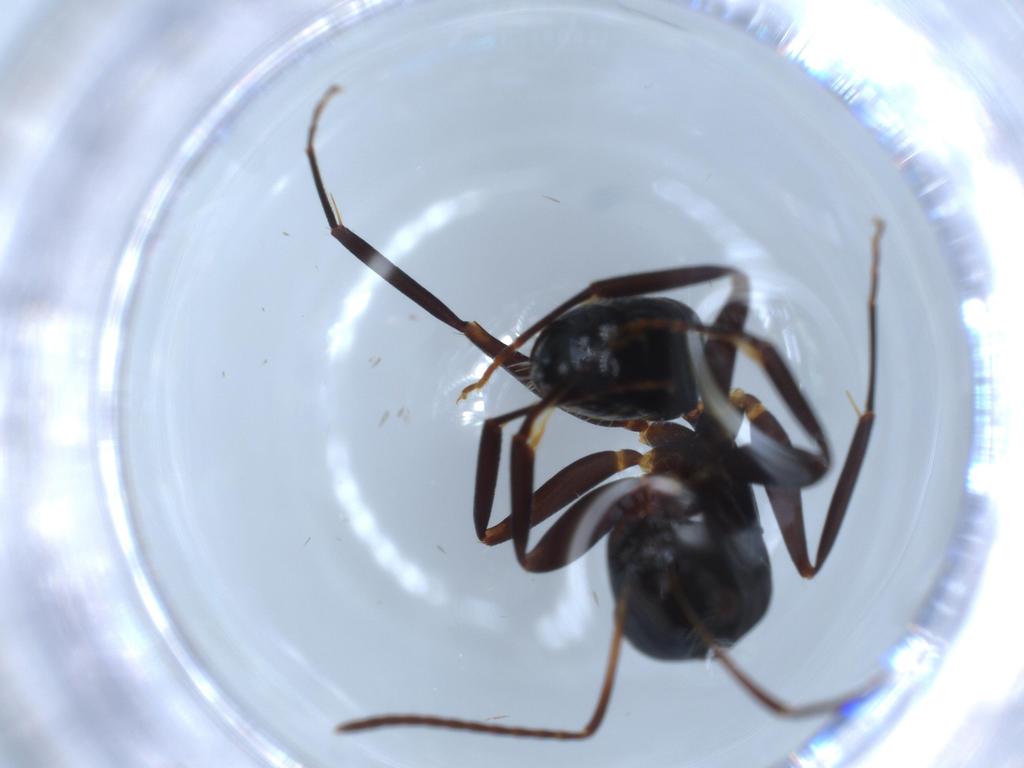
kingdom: Animalia
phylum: Arthropoda
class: Insecta
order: Hymenoptera
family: Formicidae
